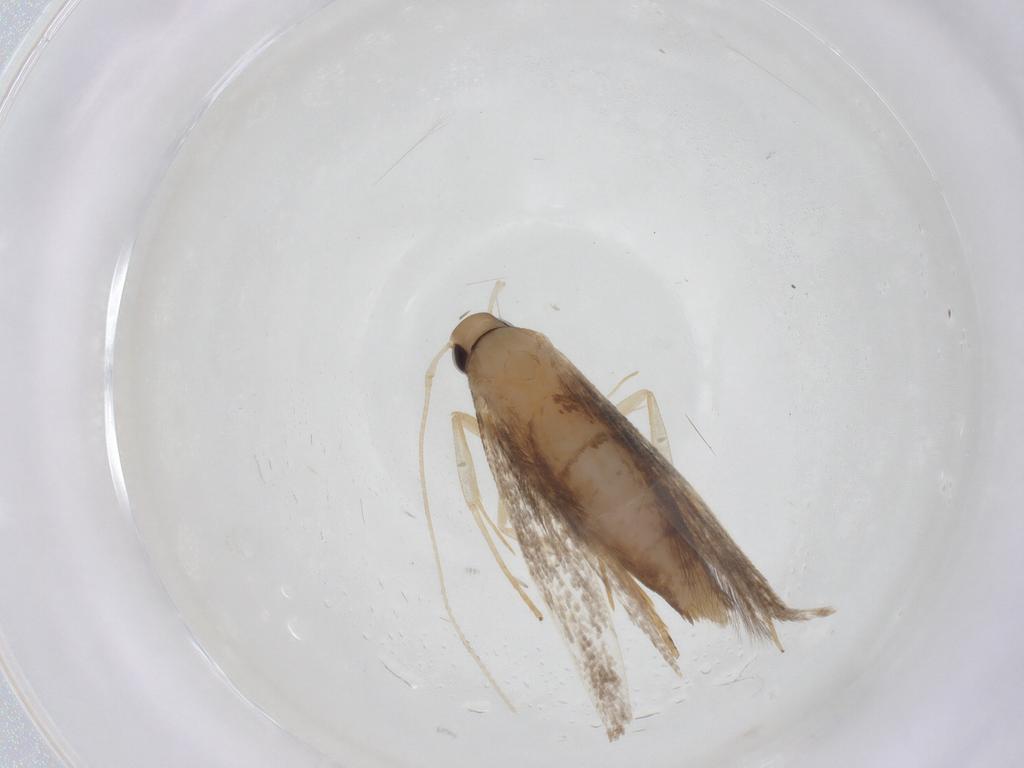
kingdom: Animalia
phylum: Arthropoda
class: Insecta
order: Lepidoptera
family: Cosmopterigidae
